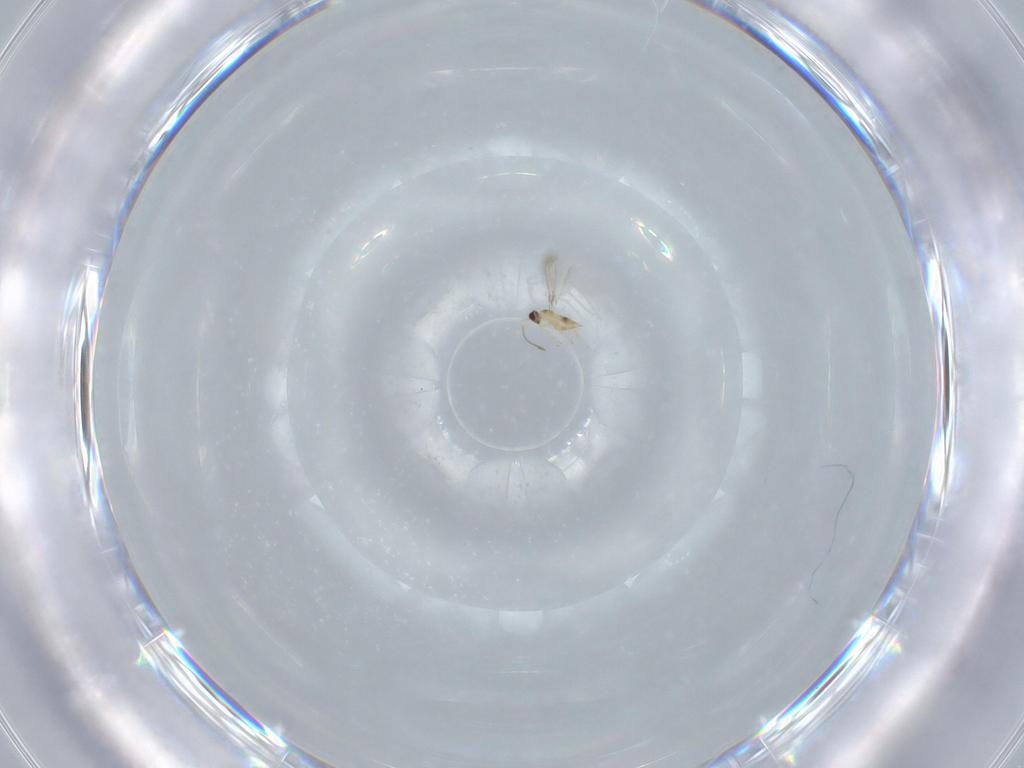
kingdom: Animalia
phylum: Arthropoda
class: Insecta
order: Hymenoptera
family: Mymaridae
